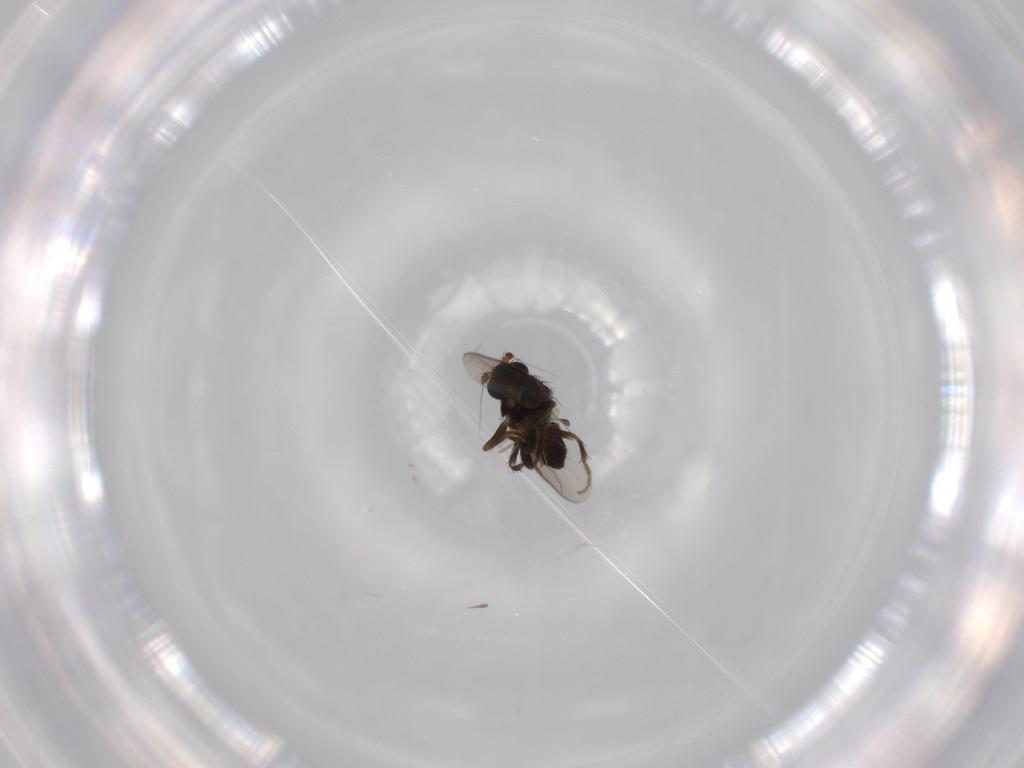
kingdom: Animalia
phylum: Arthropoda
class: Insecta
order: Diptera
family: Sphaeroceridae
